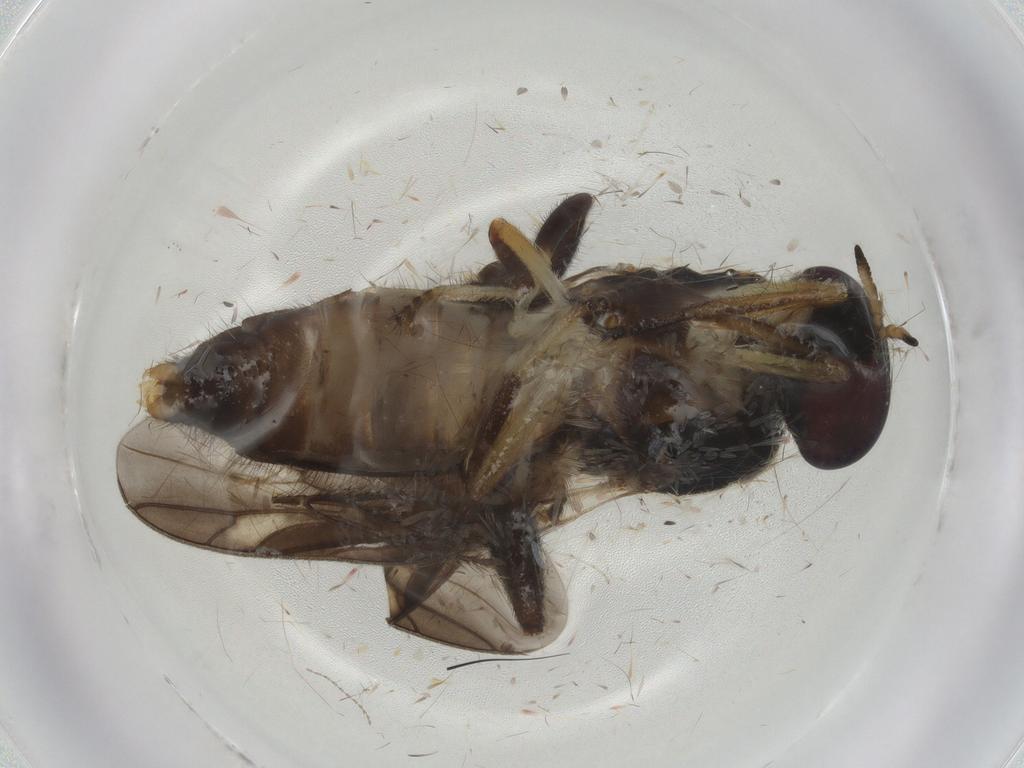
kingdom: Animalia
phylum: Arthropoda
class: Insecta
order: Diptera
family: Stratiomyidae
